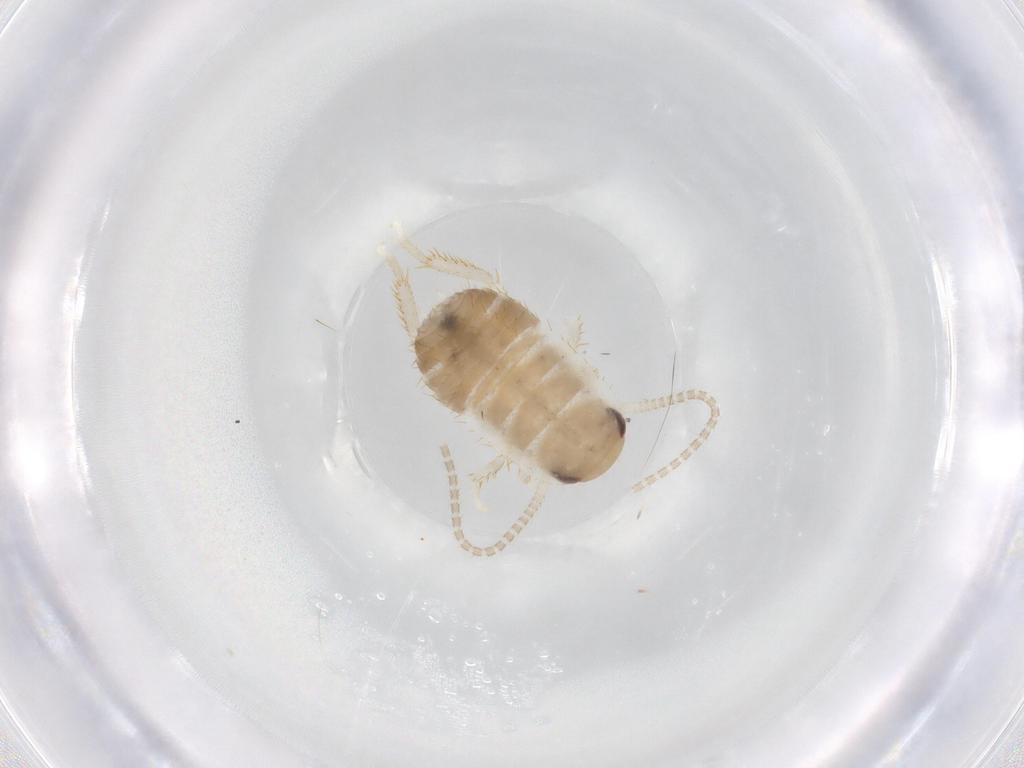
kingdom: Animalia
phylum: Arthropoda
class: Insecta
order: Blattodea
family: Ectobiidae
